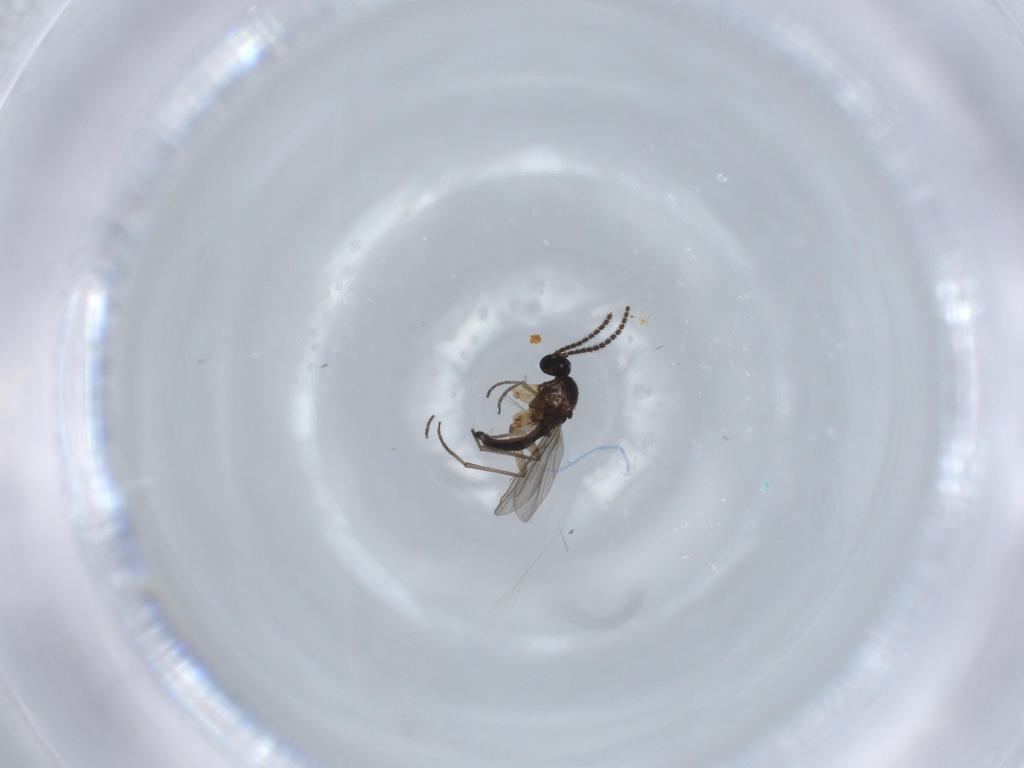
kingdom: Animalia
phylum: Arthropoda
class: Insecta
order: Diptera
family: Sciaridae
